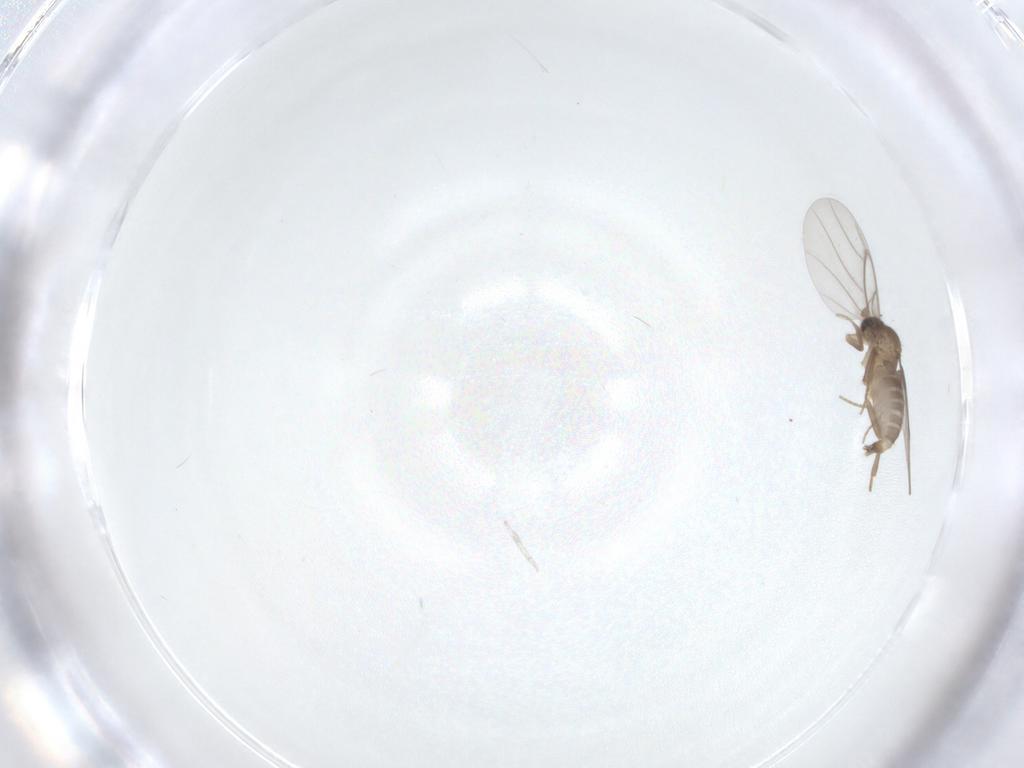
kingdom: Animalia
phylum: Arthropoda
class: Insecta
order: Diptera
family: Cecidomyiidae
